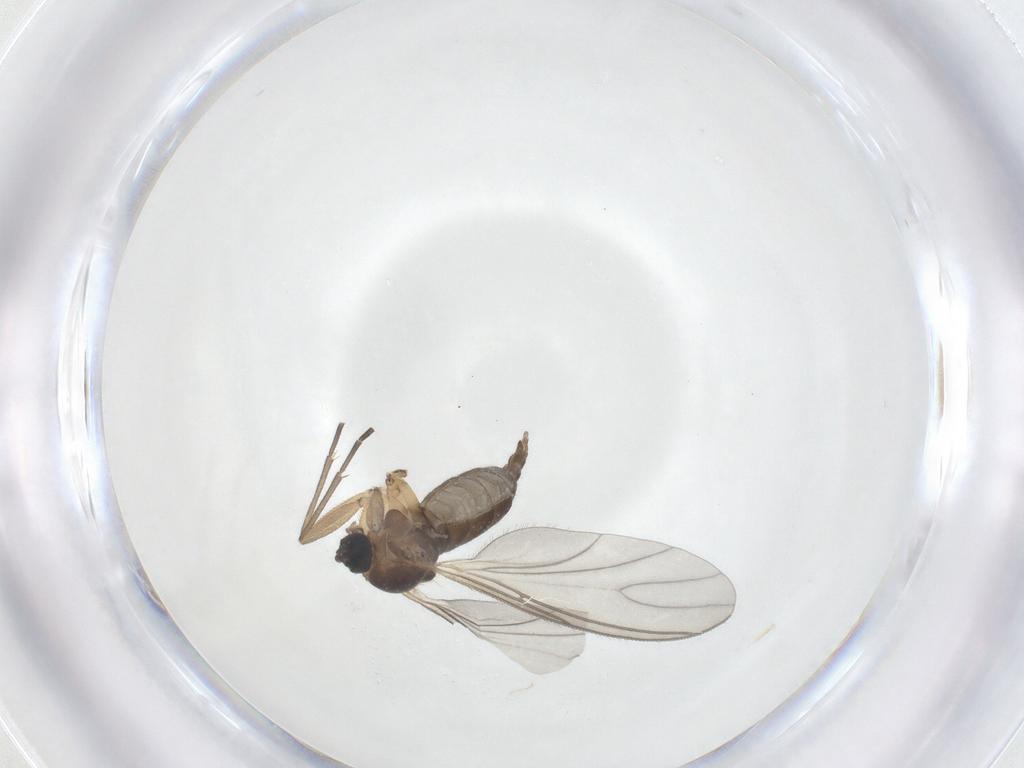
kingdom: Animalia
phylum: Arthropoda
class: Insecta
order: Diptera
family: Sciaridae
